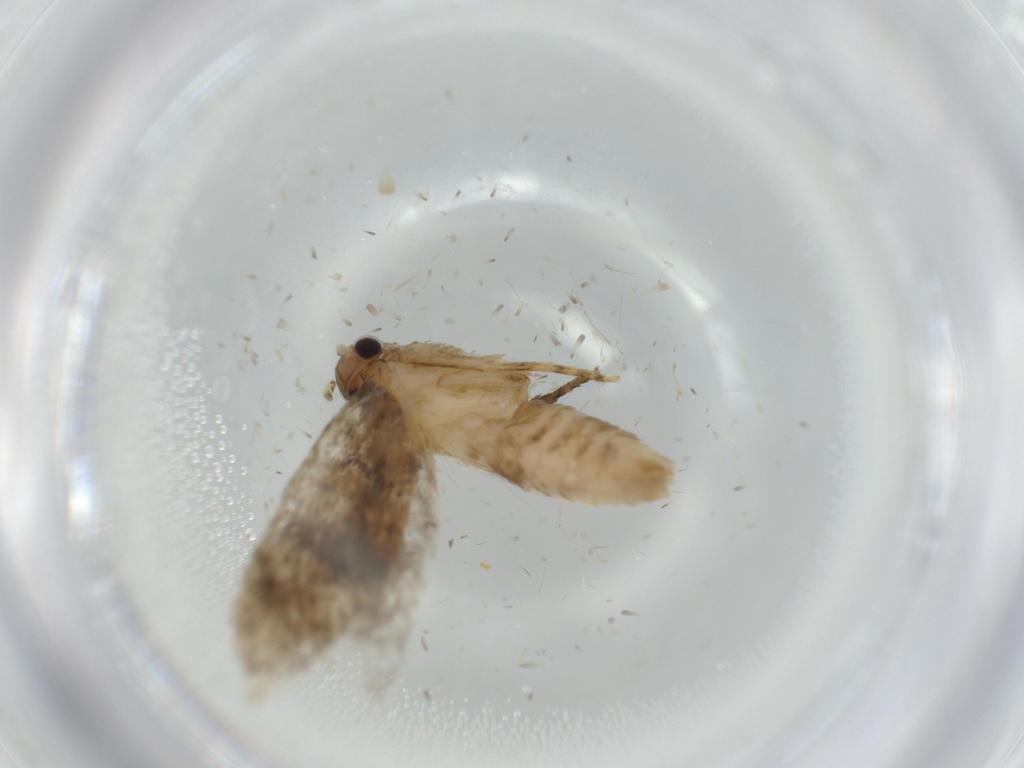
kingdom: Animalia
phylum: Arthropoda
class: Insecta
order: Lepidoptera
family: Tineidae
